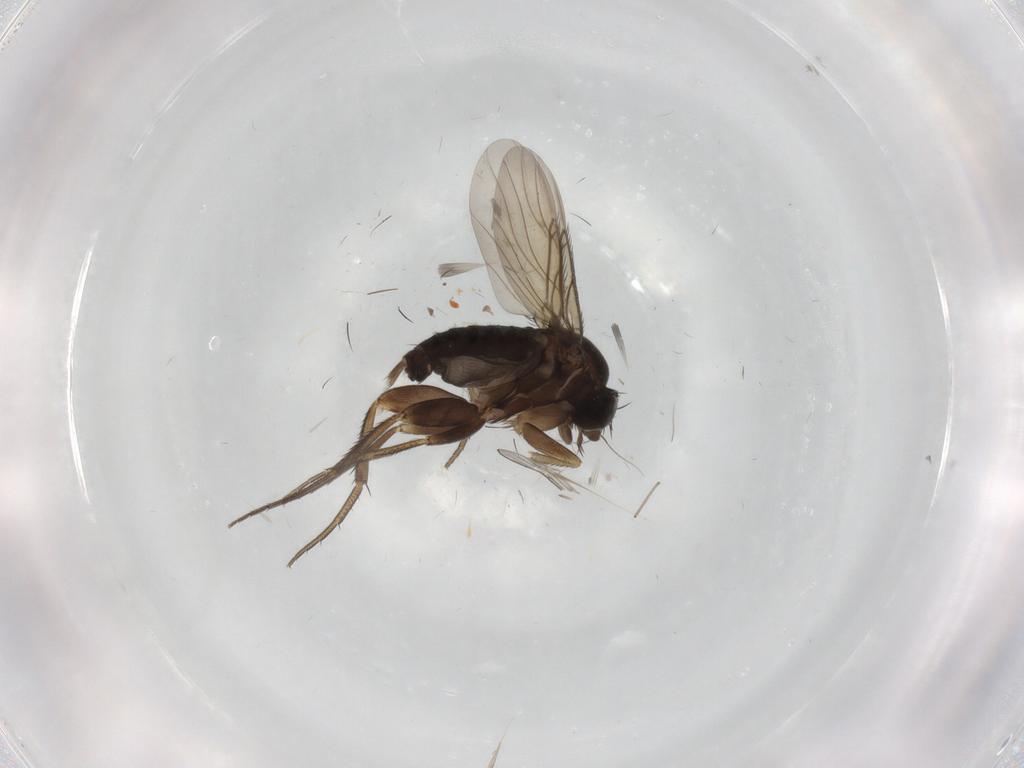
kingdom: Animalia
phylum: Arthropoda
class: Insecta
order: Diptera
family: Phoridae
